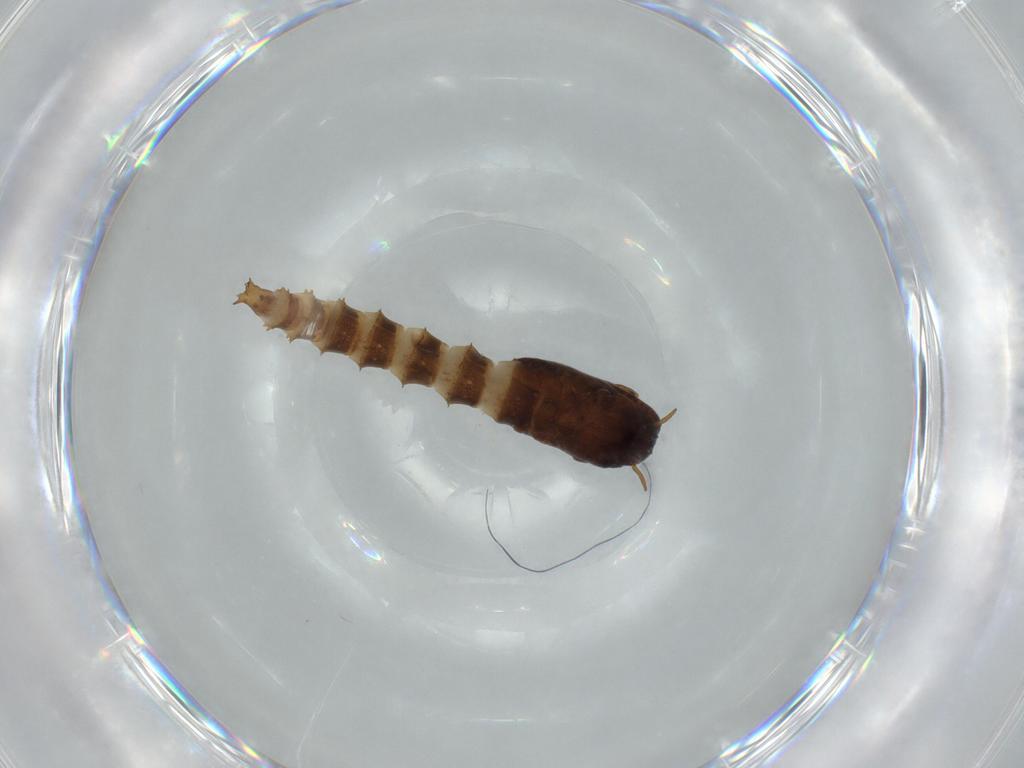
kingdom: Animalia
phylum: Arthropoda
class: Insecta
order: Diptera
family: Ceratopogonidae
